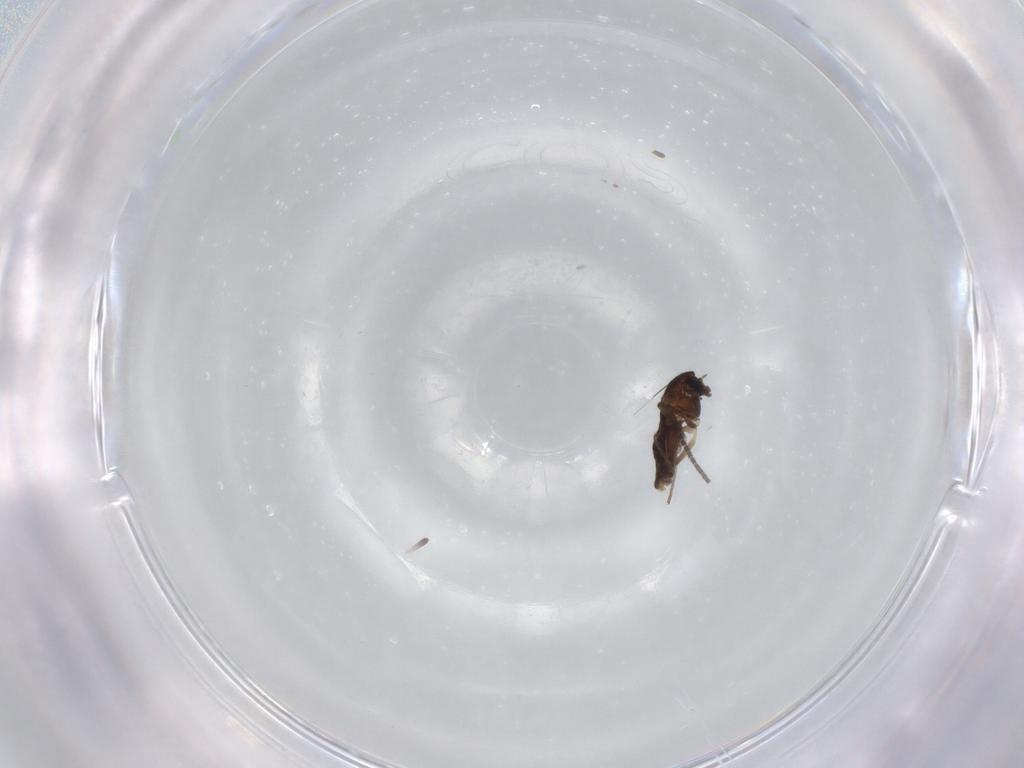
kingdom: Animalia
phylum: Arthropoda
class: Insecta
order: Diptera
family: Chironomidae
